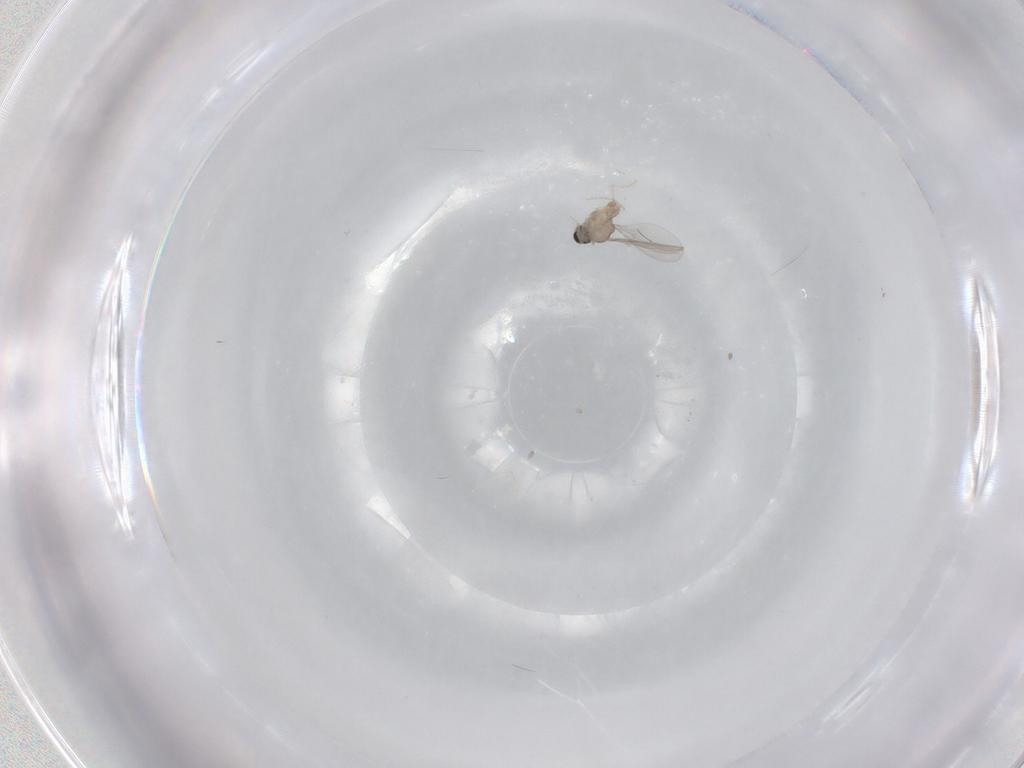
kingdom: Animalia
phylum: Arthropoda
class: Insecta
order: Diptera
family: Cecidomyiidae
